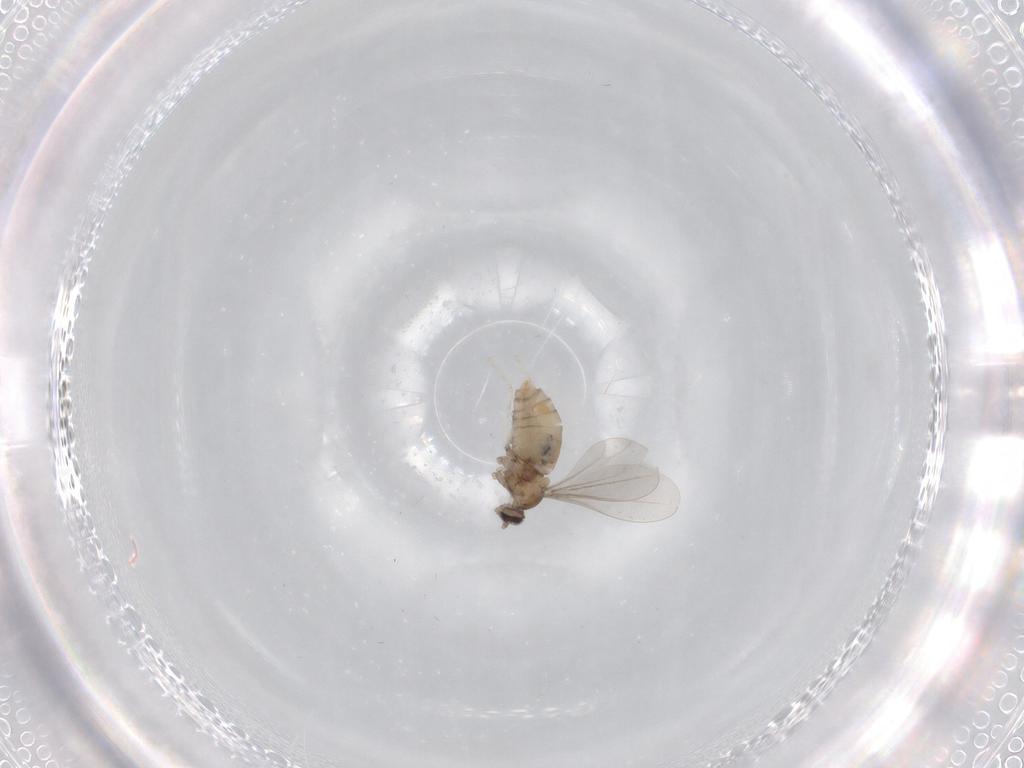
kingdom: Animalia
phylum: Arthropoda
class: Insecta
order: Diptera
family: Cecidomyiidae
